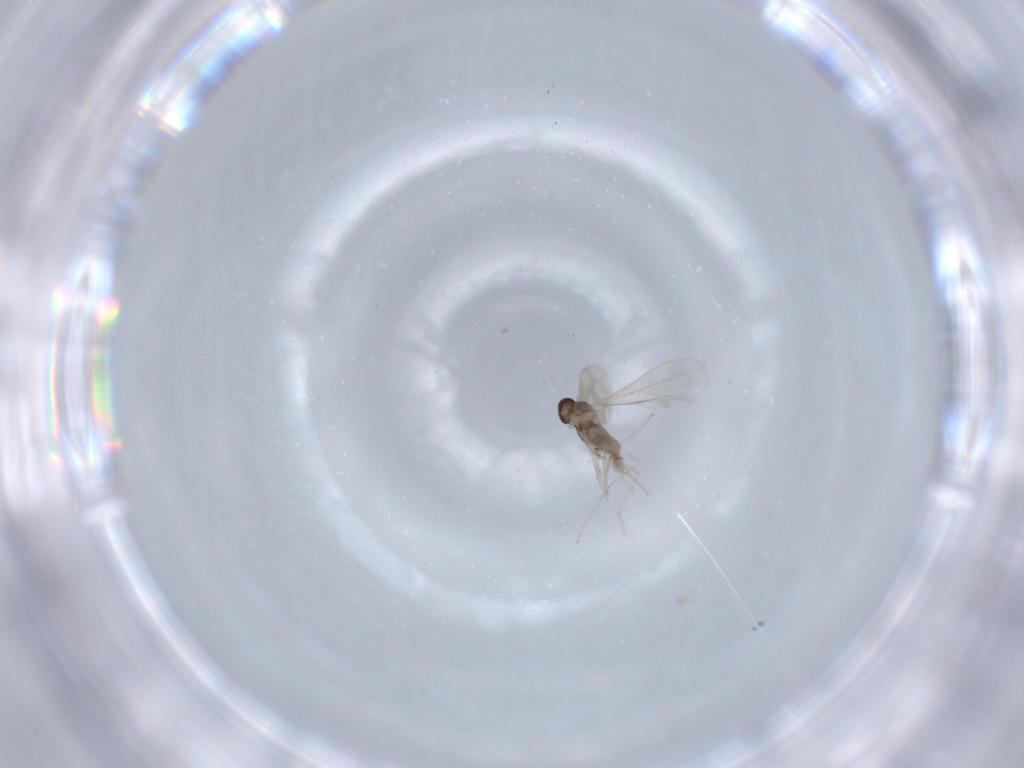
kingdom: Animalia
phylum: Arthropoda
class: Insecta
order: Diptera
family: Cecidomyiidae
